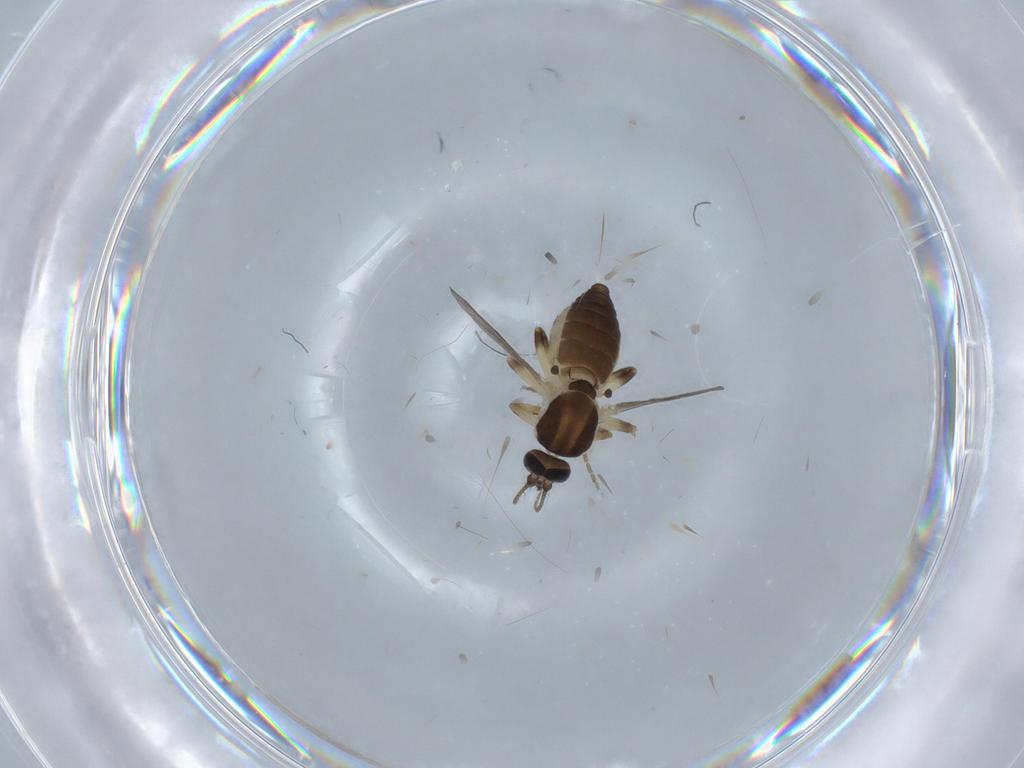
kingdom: Animalia
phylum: Arthropoda
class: Insecta
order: Diptera
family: Ceratopogonidae
